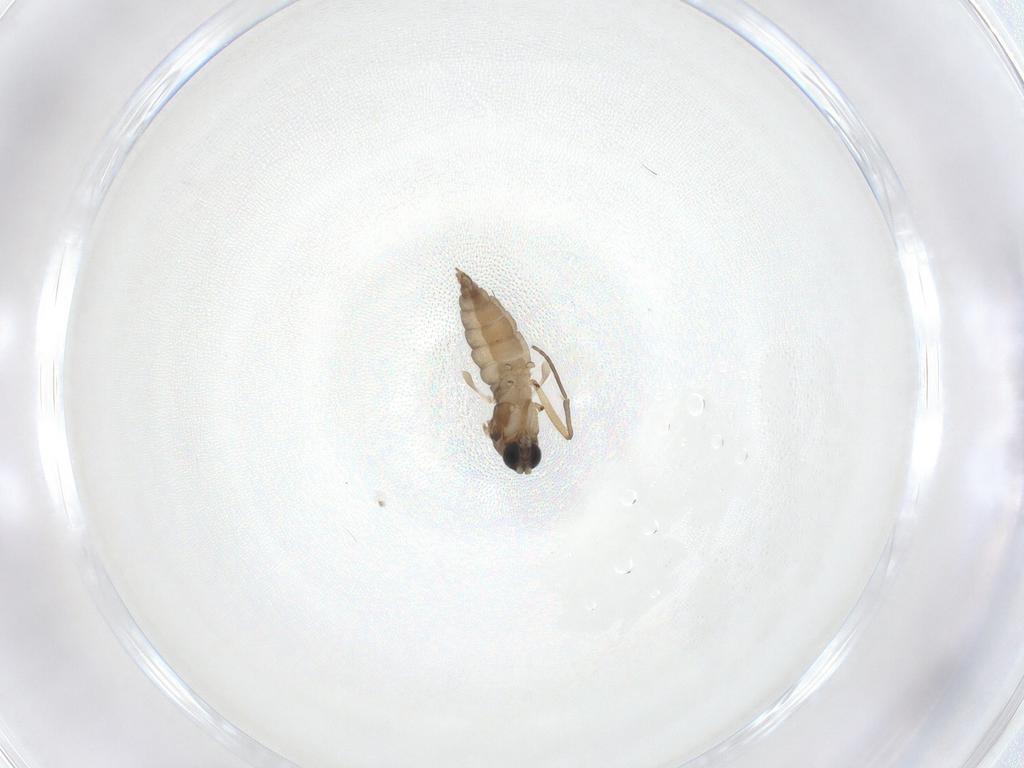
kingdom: Animalia
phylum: Arthropoda
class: Insecta
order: Diptera
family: Sciaridae
